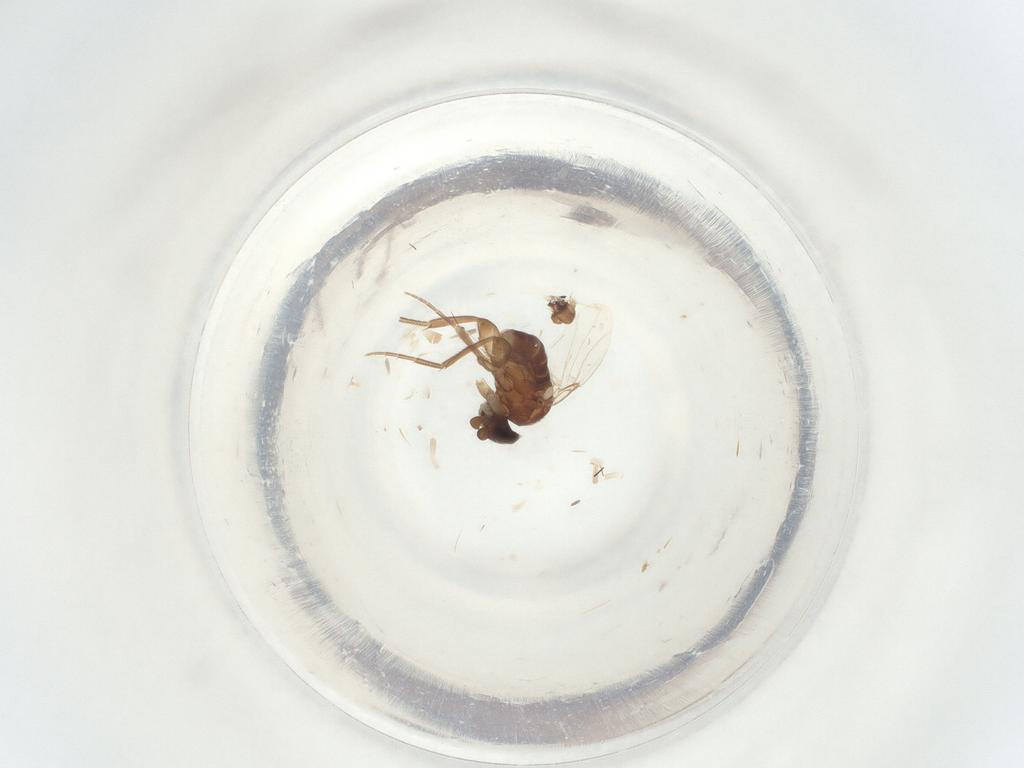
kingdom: Animalia
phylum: Arthropoda
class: Insecta
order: Diptera
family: Phoridae
